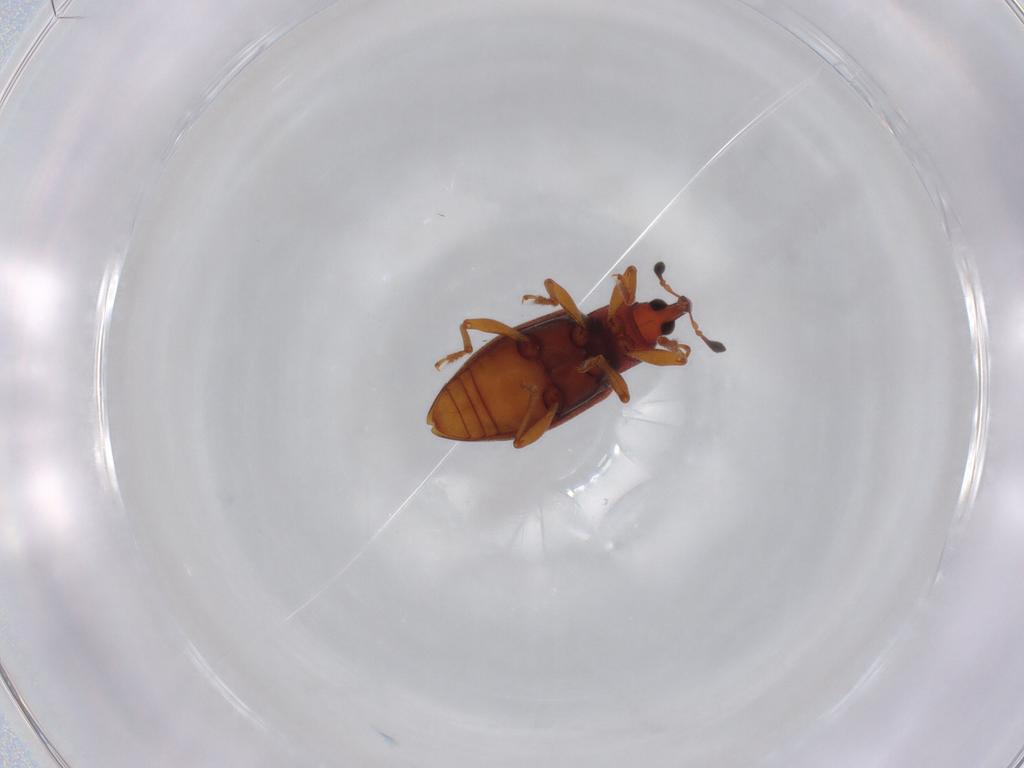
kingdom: Animalia
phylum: Arthropoda
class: Insecta
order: Coleoptera
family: Curculionidae
